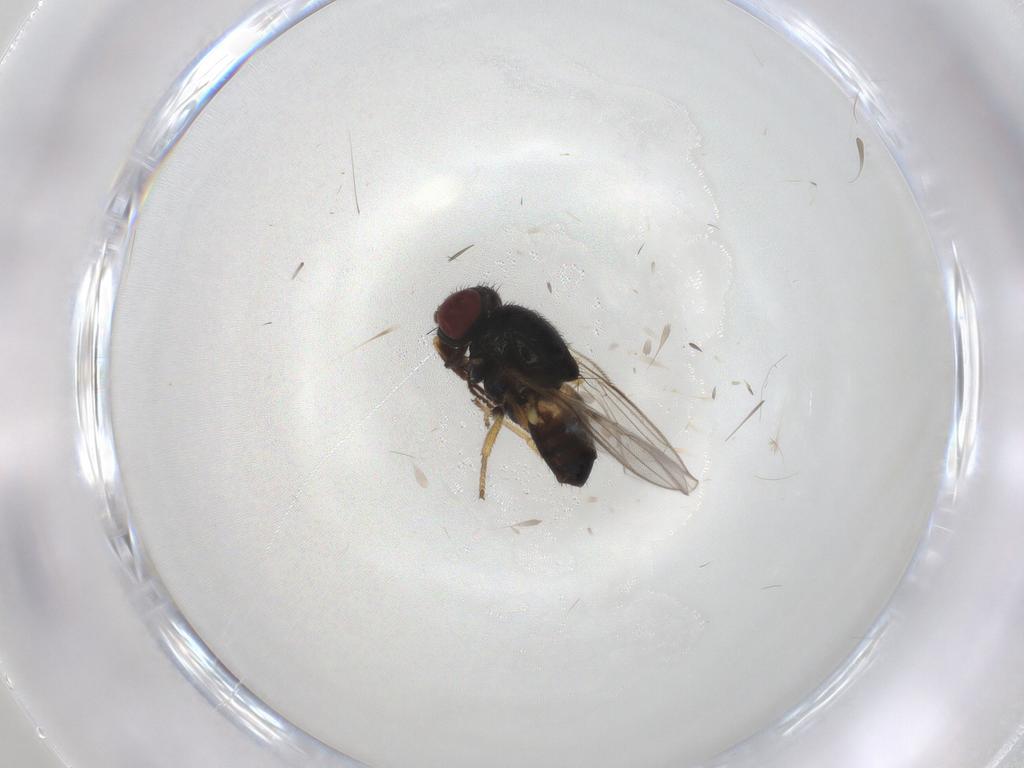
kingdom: Animalia
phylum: Arthropoda
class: Insecta
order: Diptera
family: Chloropidae
